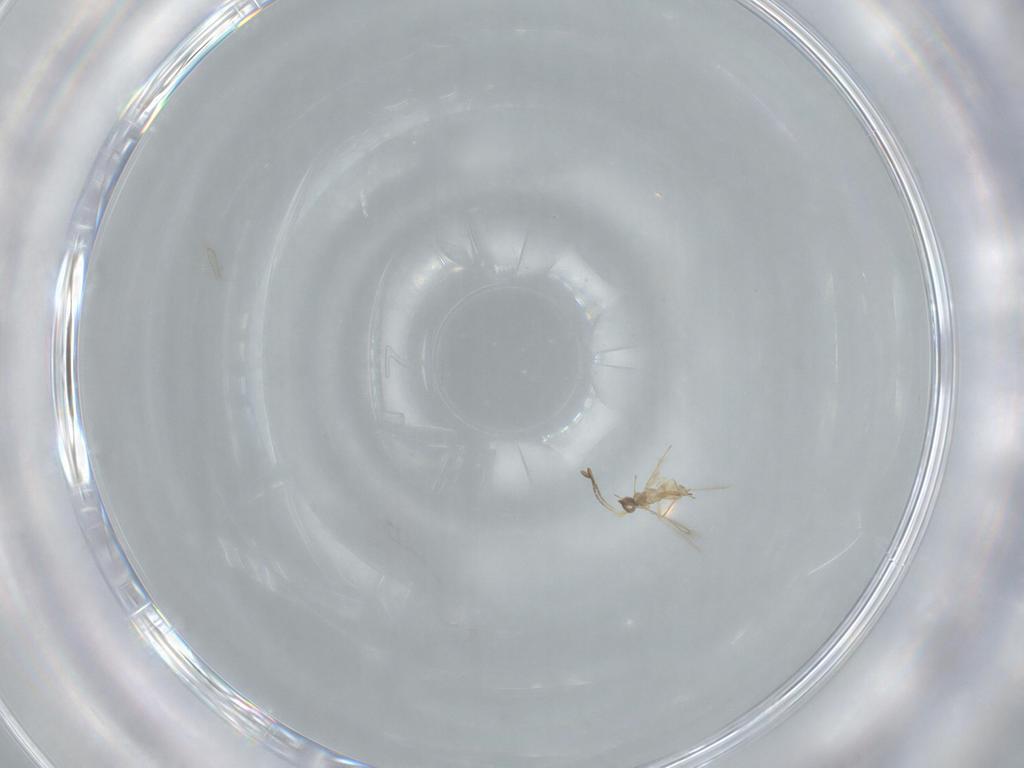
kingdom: Animalia
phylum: Arthropoda
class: Insecta
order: Hymenoptera
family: Mymaridae
